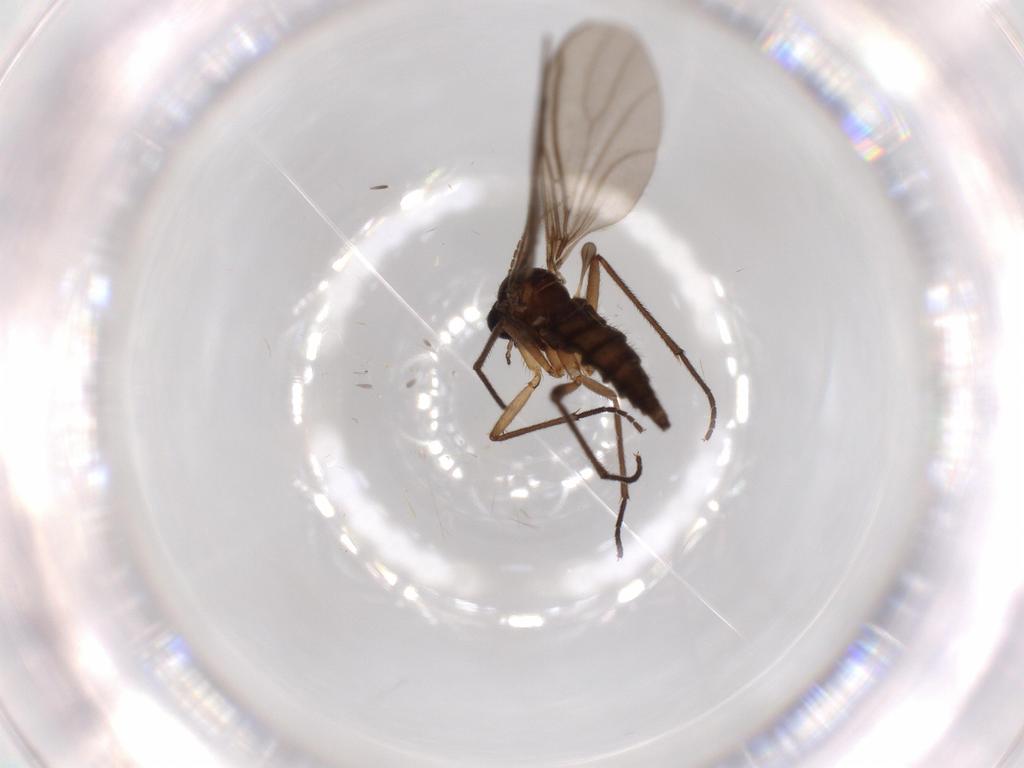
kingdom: Animalia
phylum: Arthropoda
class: Insecta
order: Diptera
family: Sciaridae
